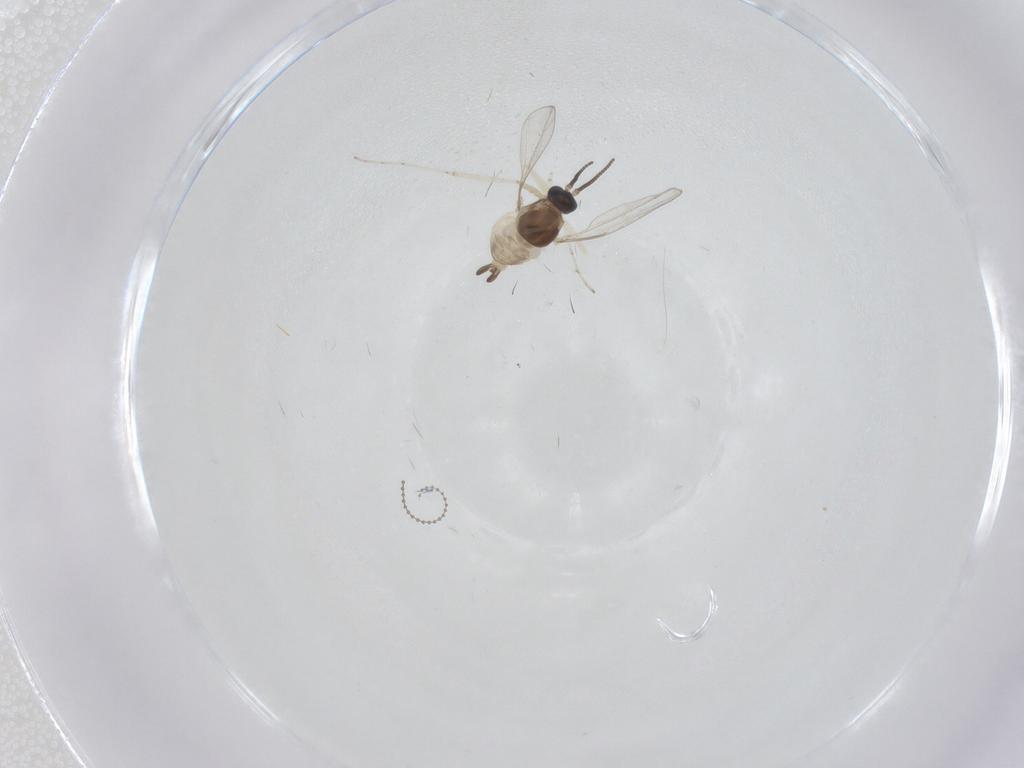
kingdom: Animalia
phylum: Arthropoda
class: Insecta
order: Diptera
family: Cecidomyiidae
